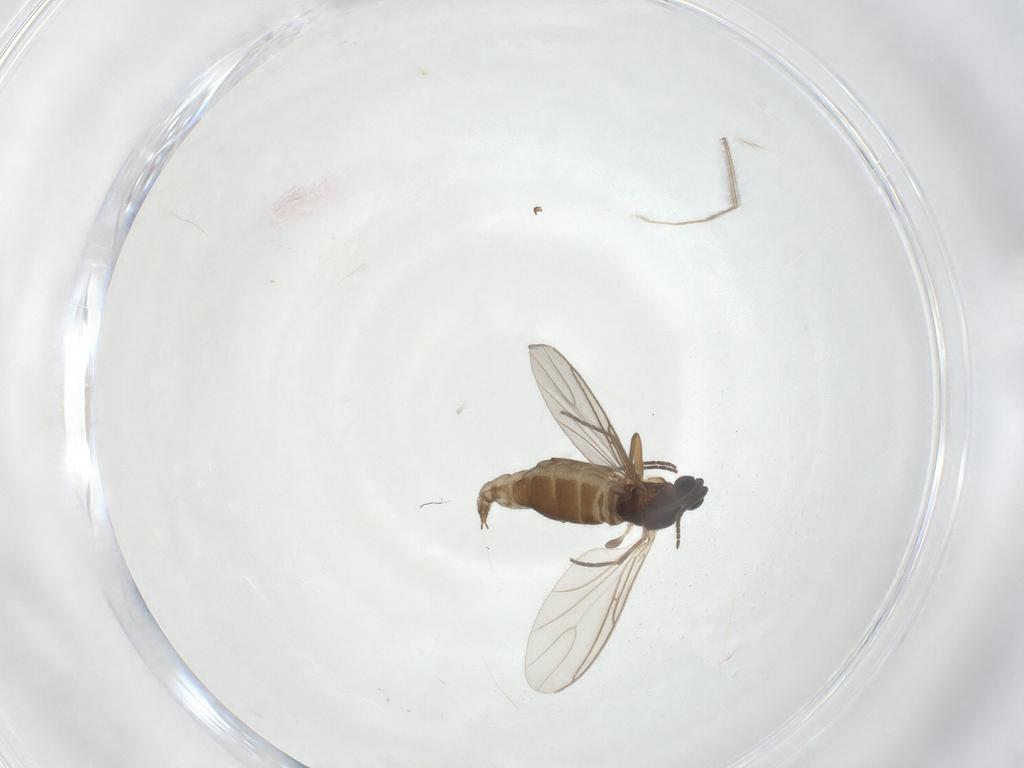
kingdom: Animalia
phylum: Arthropoda
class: Insecta
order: Diptera
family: Sciaridae
